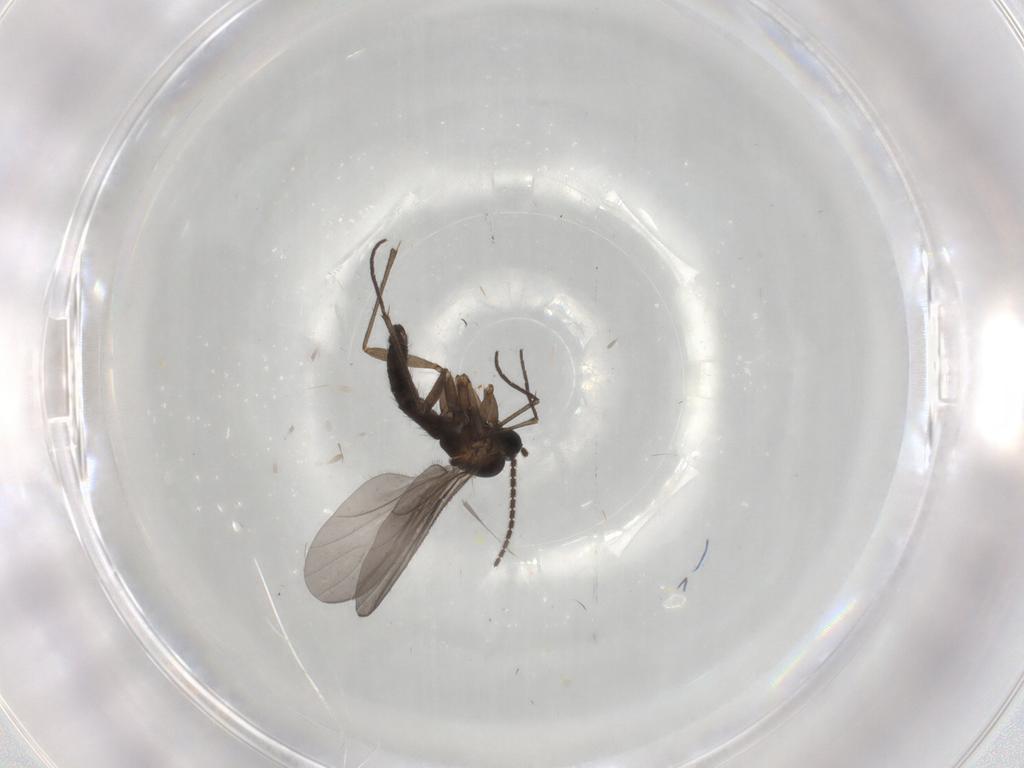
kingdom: Animalia
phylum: Arthropoda
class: Insecta
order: Diptera
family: Sciaridae
